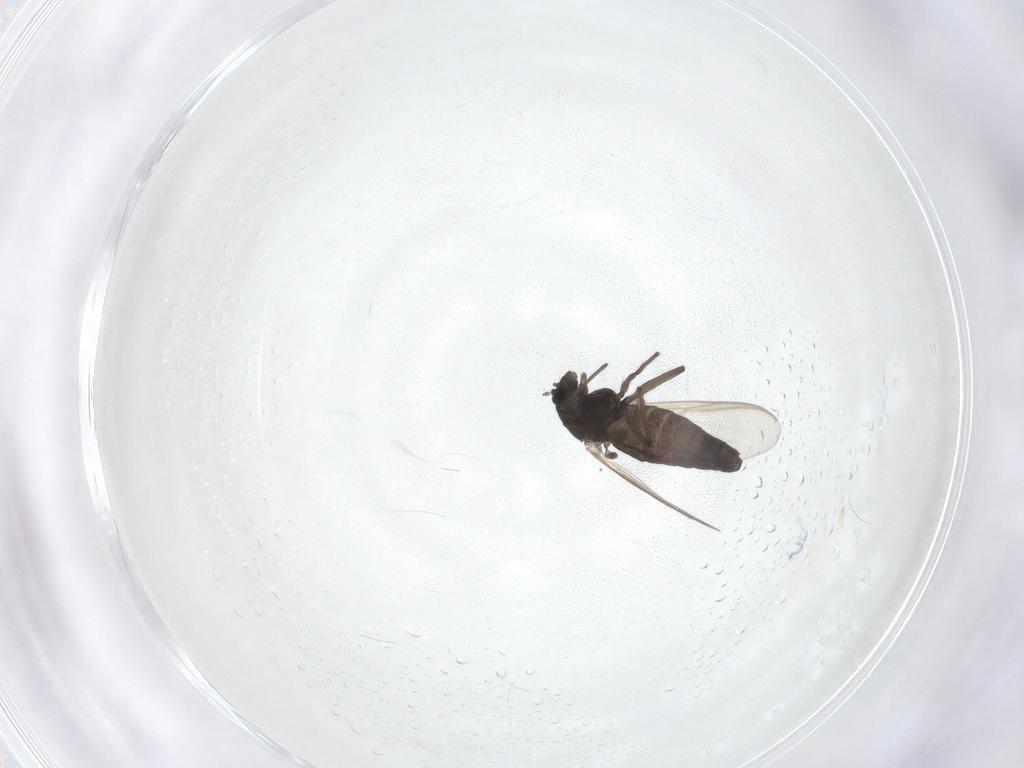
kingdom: Animalia
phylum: Arthropoda
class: Insecta
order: Diptera
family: Chironomidae
